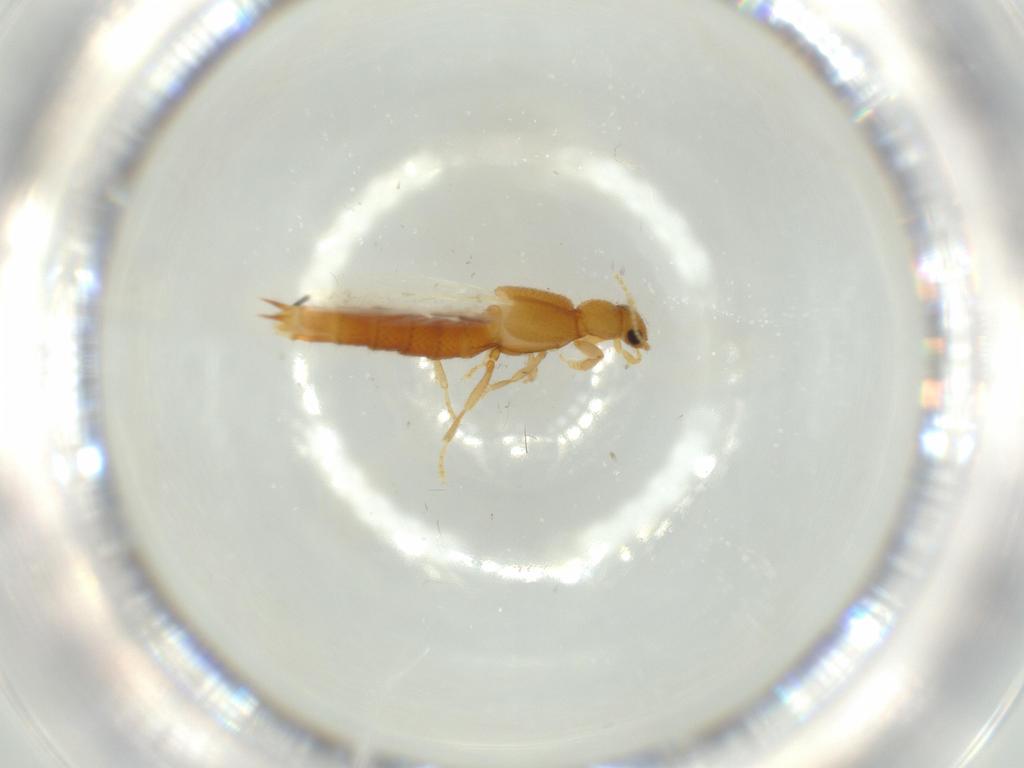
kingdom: Animalia
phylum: Arthropoda
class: Insecta
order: Coleoptera
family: Staphylinidae
